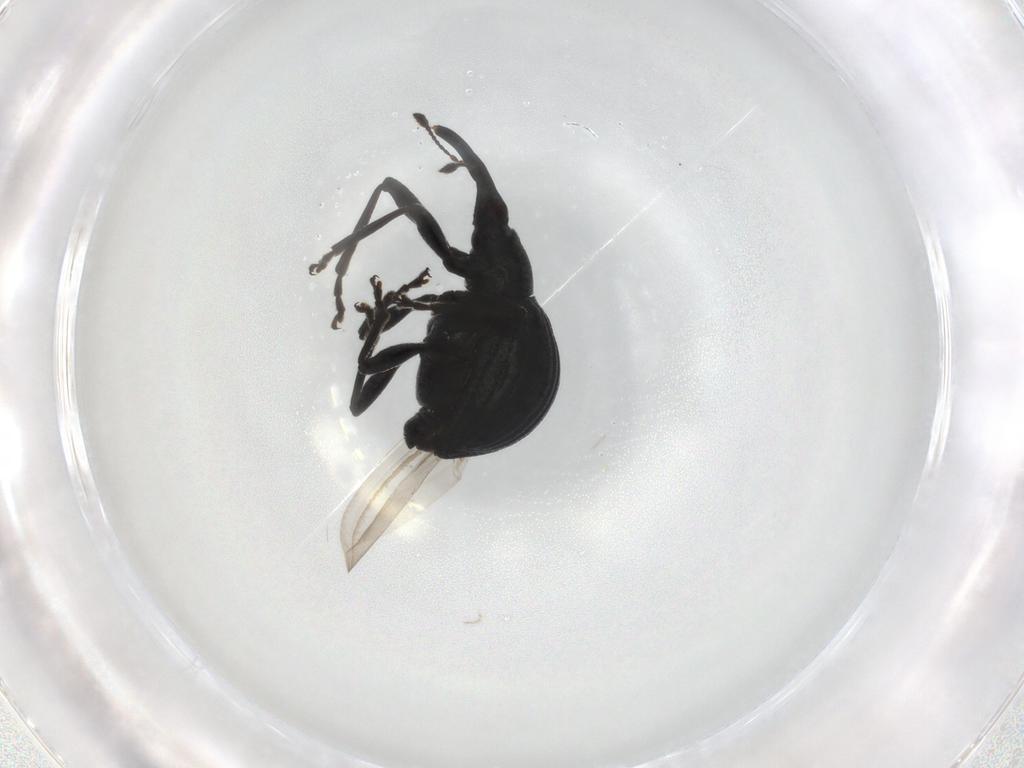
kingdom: Animalia
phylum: Arthropoda
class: Insecta
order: Coleoptera
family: Brentidae
